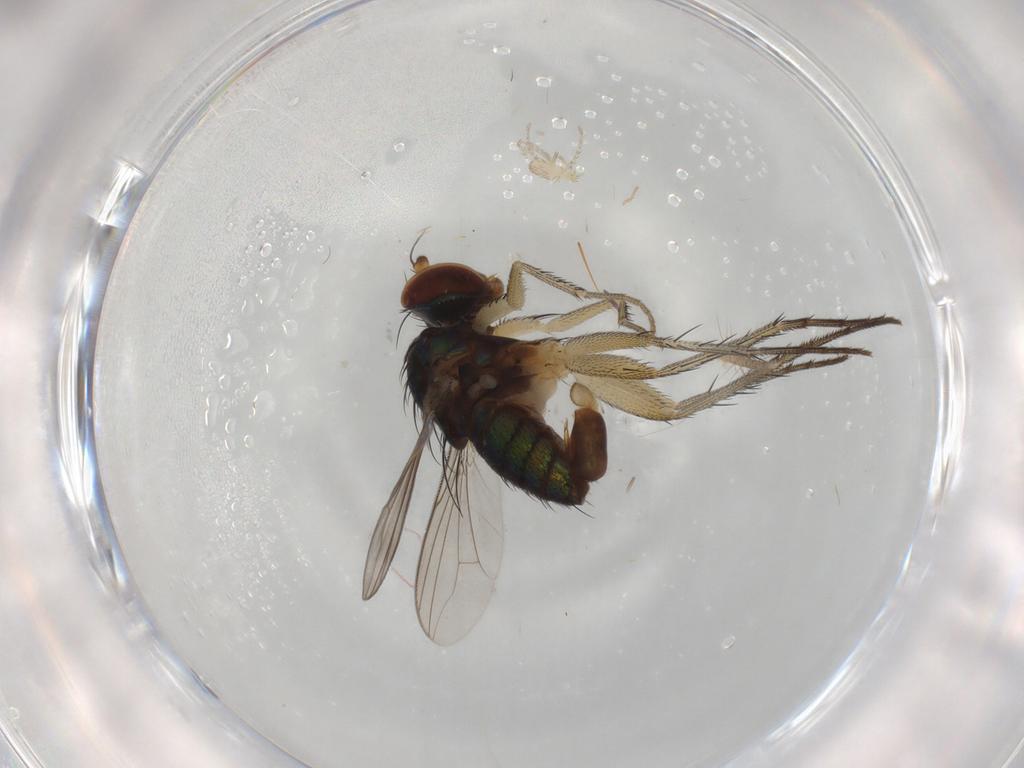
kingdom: Animalia
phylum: Arthropoda
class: Insecta
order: Diptera
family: Dolichopodidae
